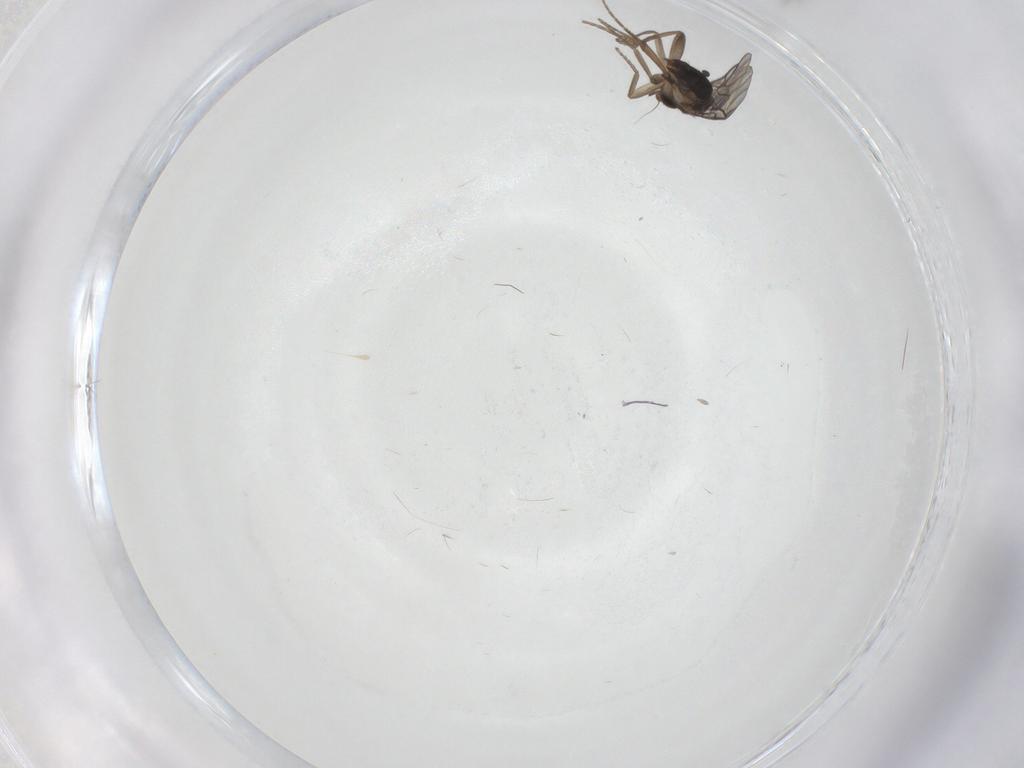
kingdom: Animalia
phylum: Arthropoda
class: Insecta
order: Diptera
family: Phoridae
